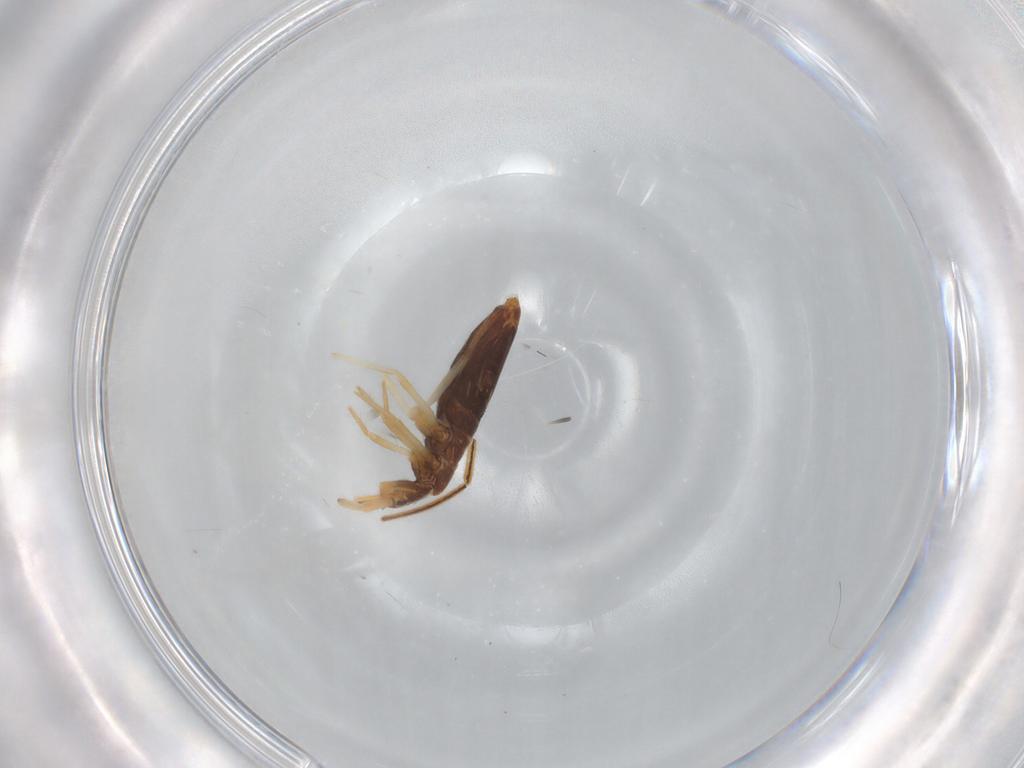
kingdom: Animalia
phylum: Arthropoda
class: Collembola
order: Entomobryomorpha
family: Entomobryidae
